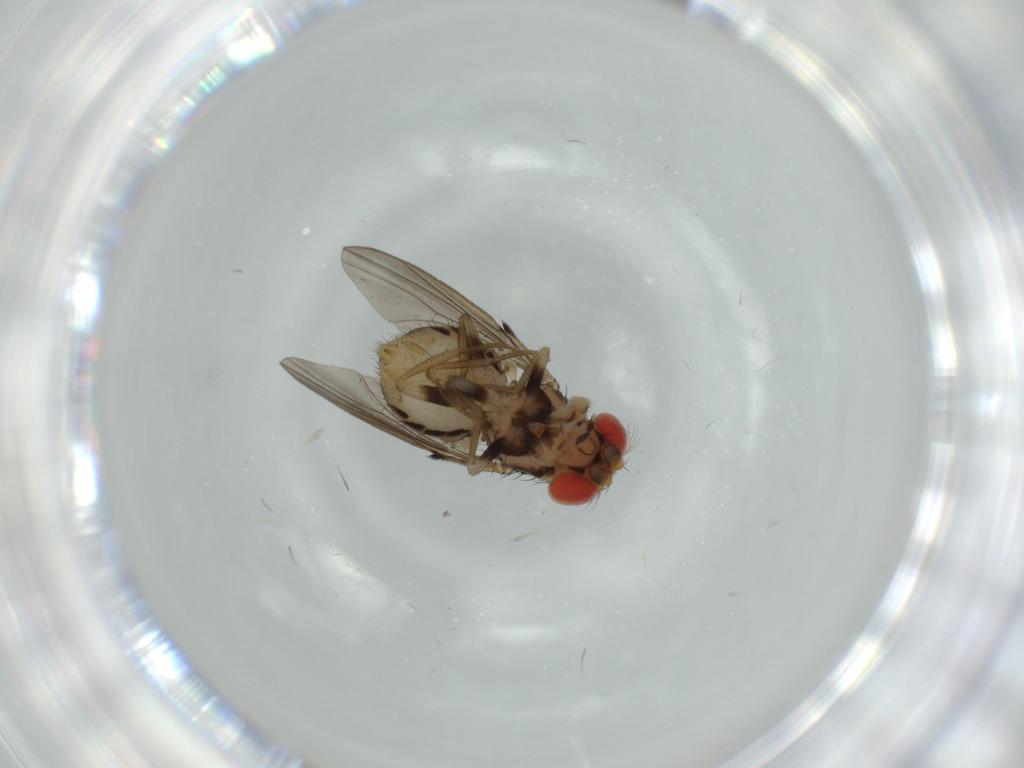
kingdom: Animalia
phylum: Arthropoda
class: Insecta
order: Diptera
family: Drosophilidae
